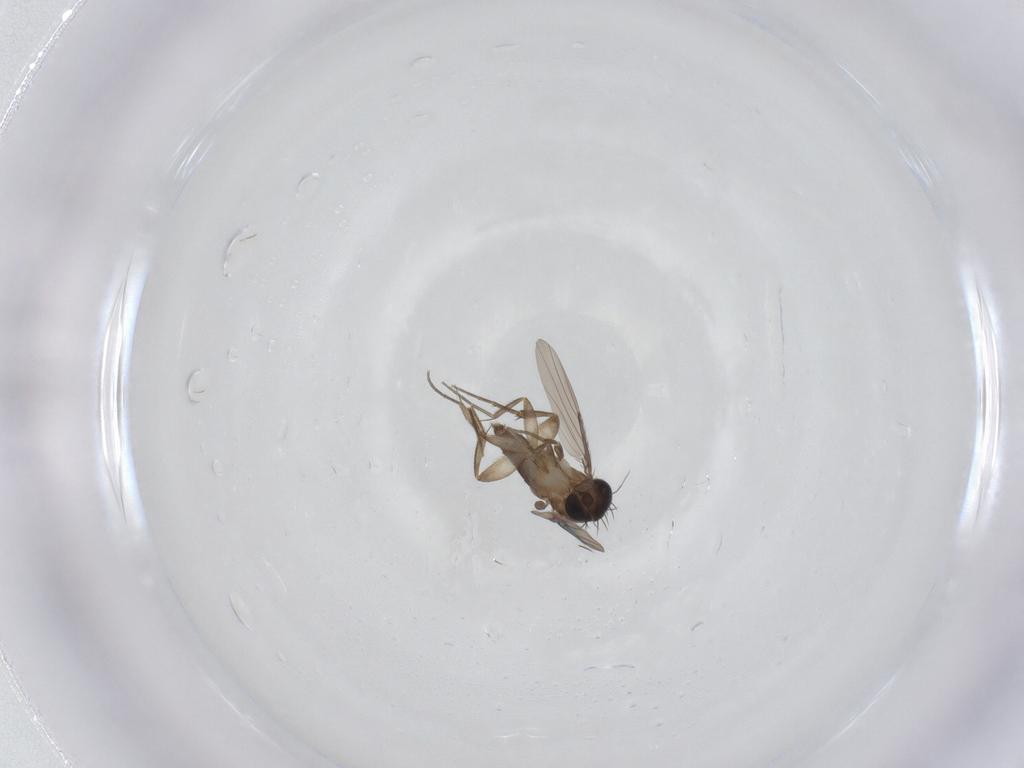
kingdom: Animalia
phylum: Arthropoda
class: Insecta
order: Diptera
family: Phoridae
